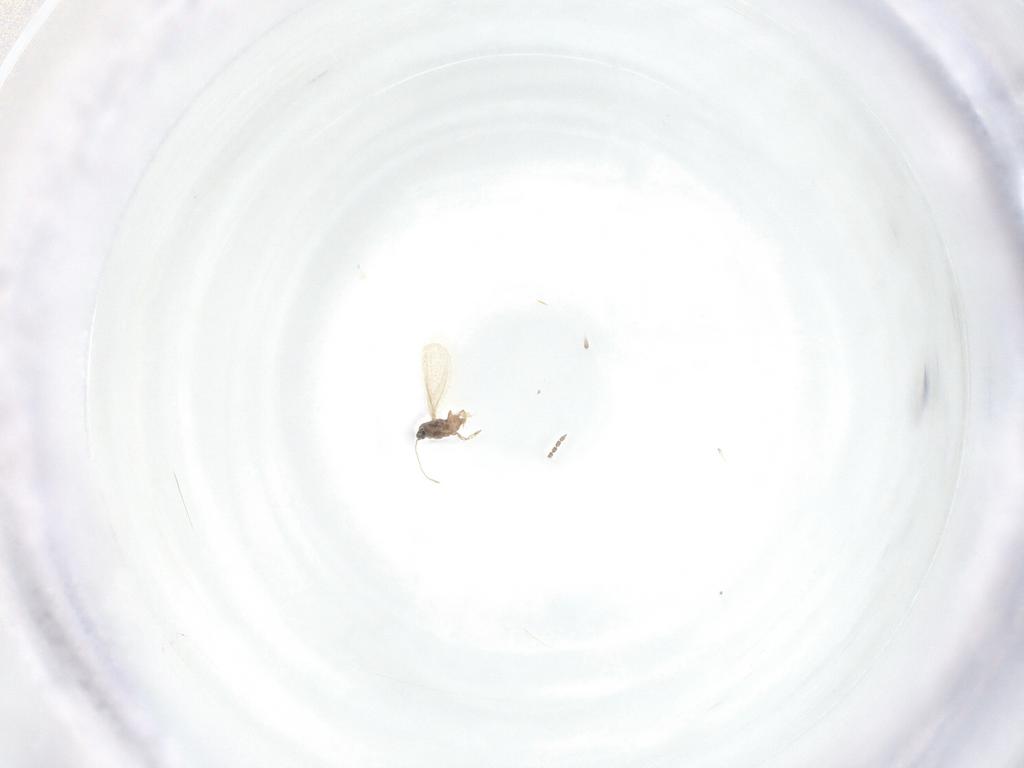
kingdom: Animalia
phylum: Arthropoda
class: Insecta
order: Diptera
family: Cecidomyiidae
